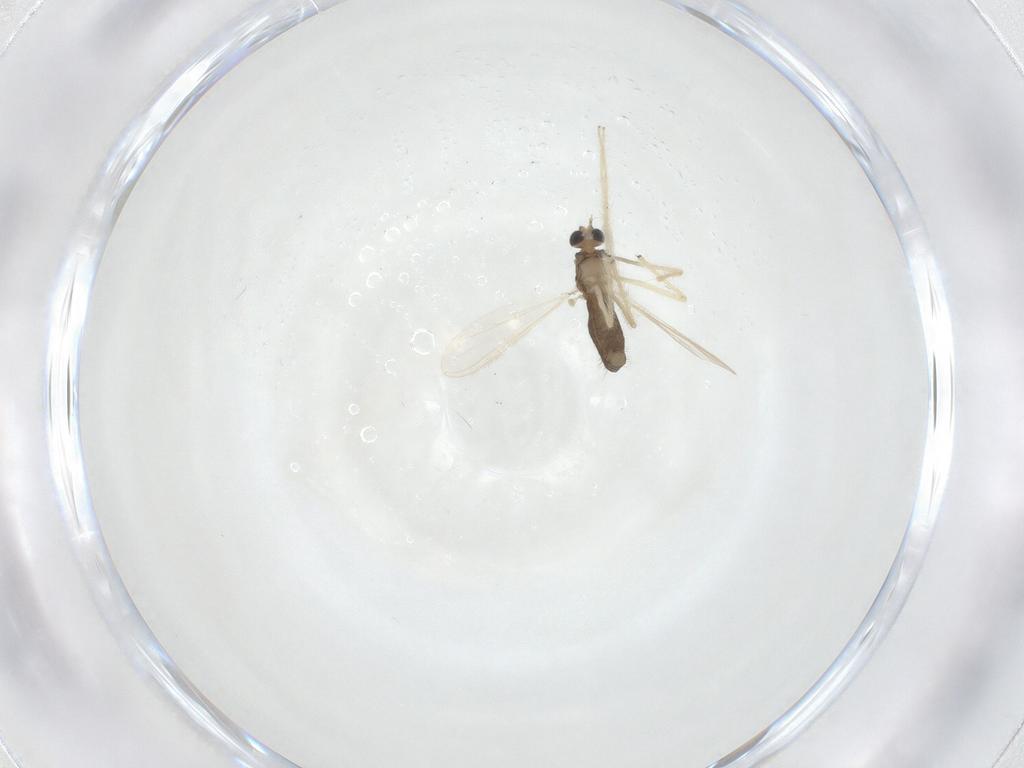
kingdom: Animalia
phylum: Arthropoda
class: Insecta
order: Diptera
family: Chironomidae
